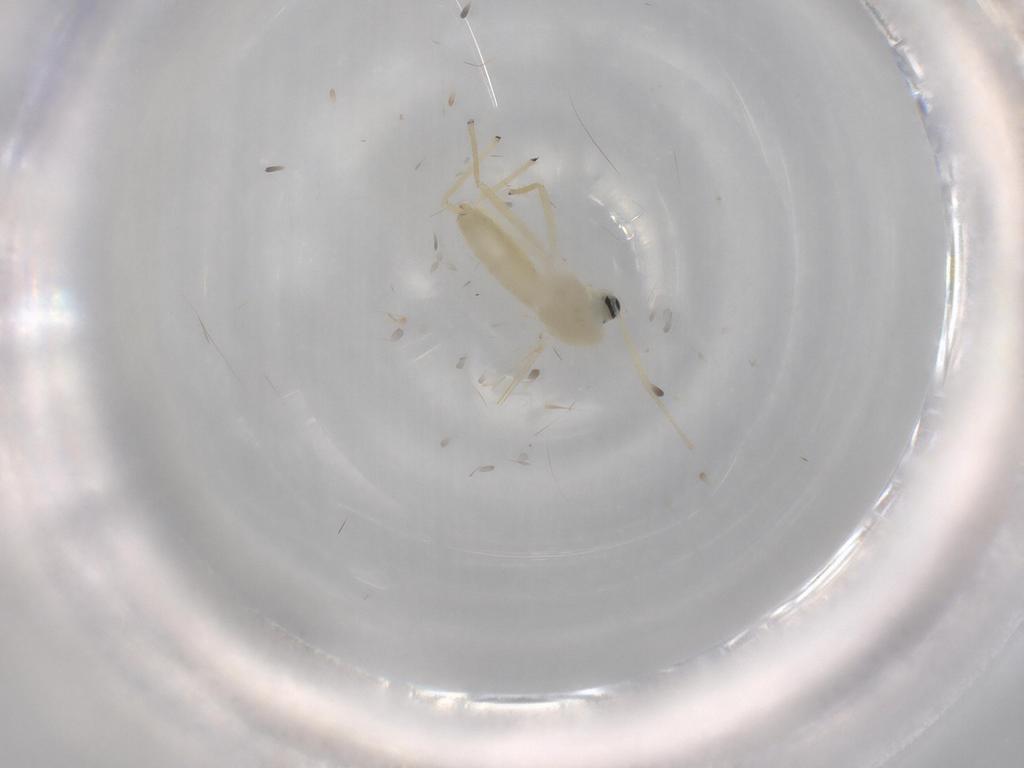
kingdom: Animalia
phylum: Arthropoda
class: Insecta
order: Diptera
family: Chironomidae
